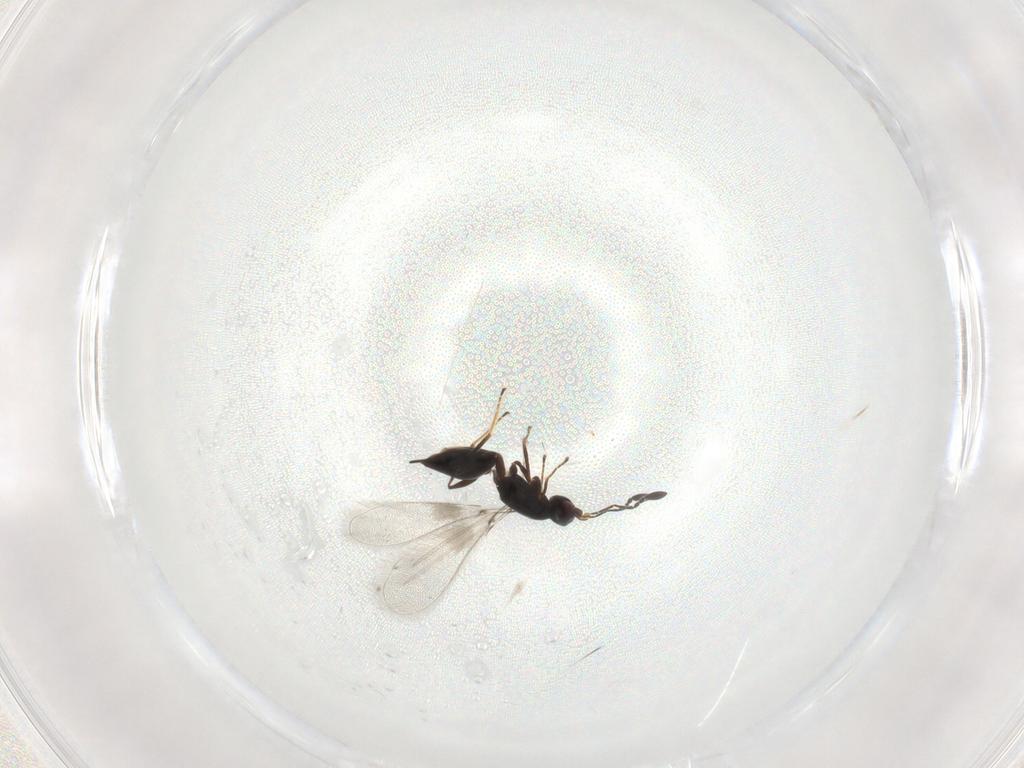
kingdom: Animalia
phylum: Arthropoda
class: Insecta
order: Hymenoptera
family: Mymaridae
